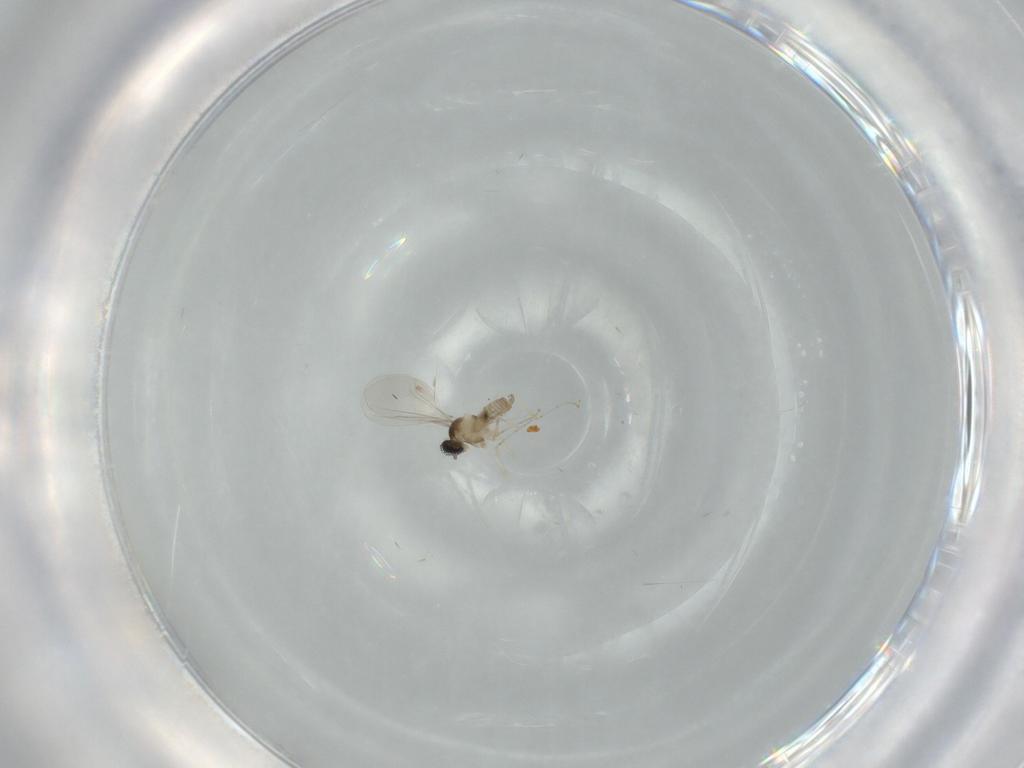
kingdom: Animalia
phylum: Arthropoda
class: Insecta
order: Diptera
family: Cecidomyiidae
